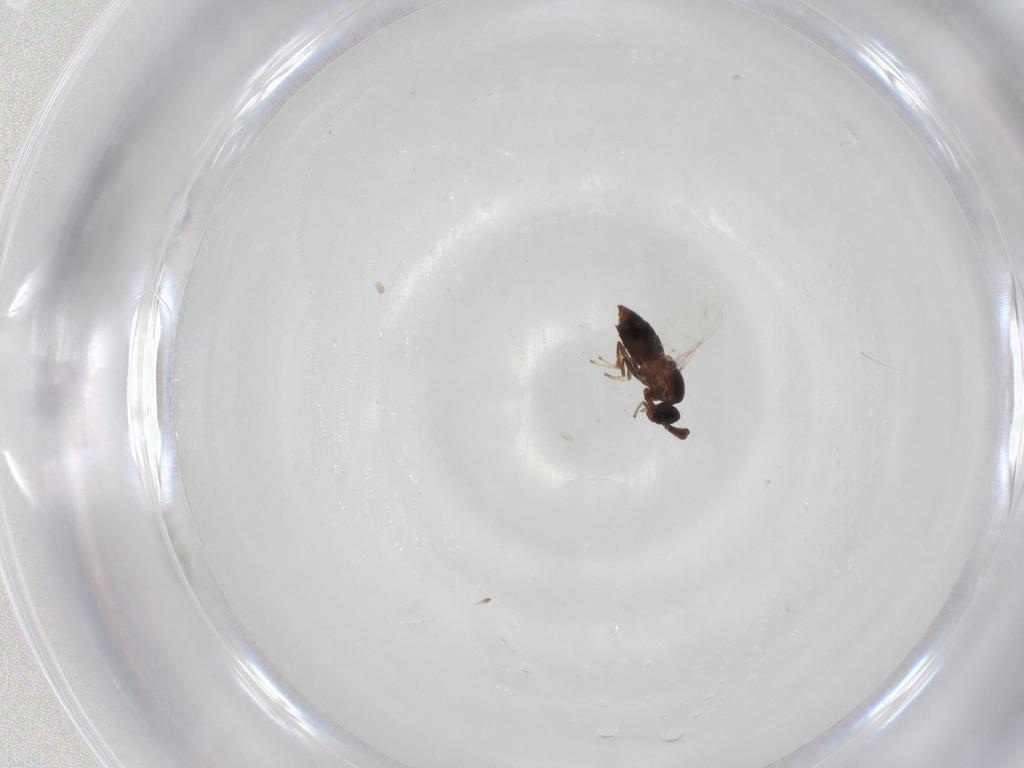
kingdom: Animalia
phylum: Arthropoda
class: Insecta
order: Diptera
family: Scatopsidae
